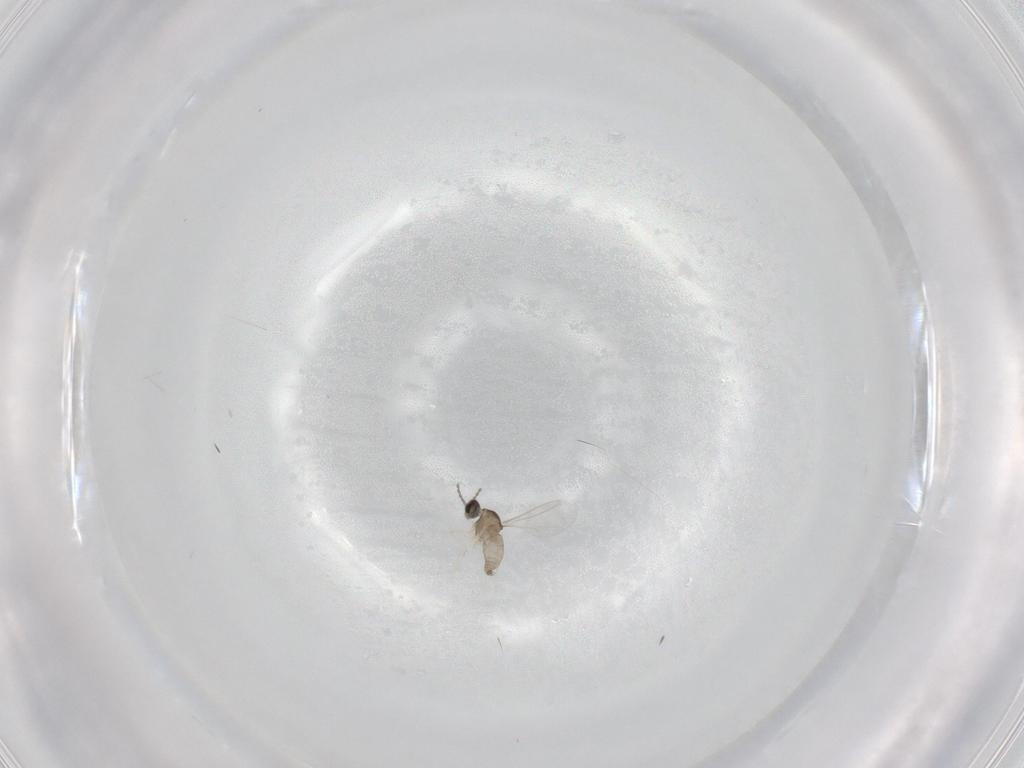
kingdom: Animalia
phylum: Arthropoda
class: Insecta
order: Diptera
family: Cecidomyiidae
